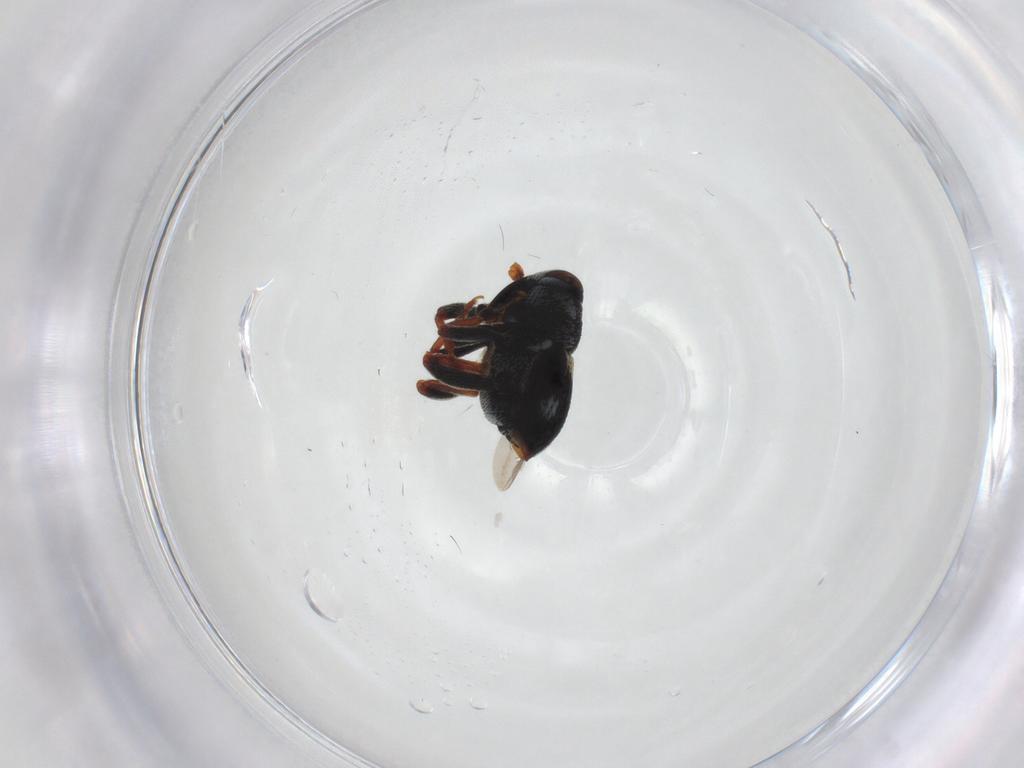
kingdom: Animalia
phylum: Arthropoda
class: Insecta
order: Coleoptera
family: Curculionidae
